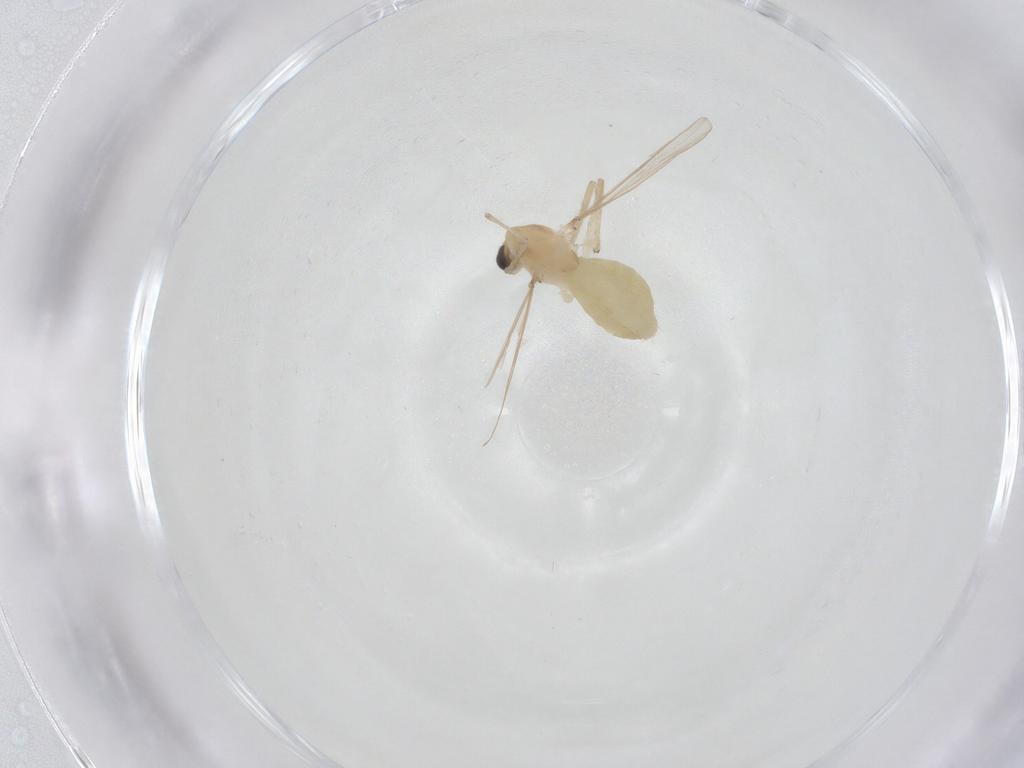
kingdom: Animalia
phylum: Arthropoda
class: Insecta
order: Diptera
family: Chironomidae
